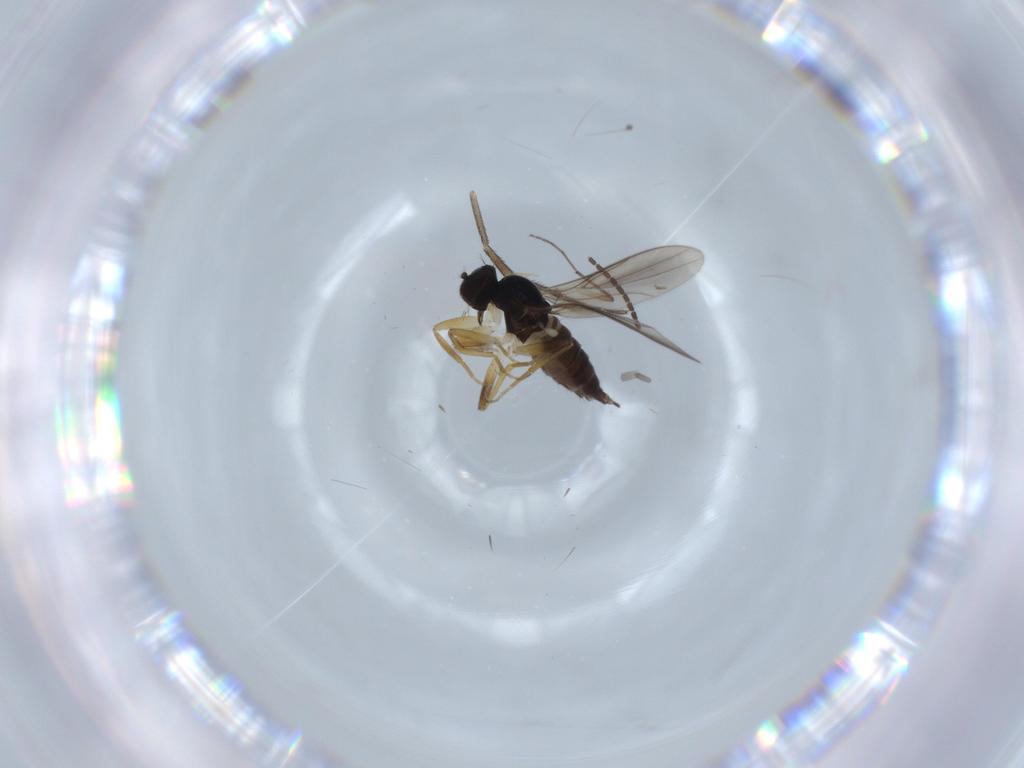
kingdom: Animalia
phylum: Arthropoda
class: Insecta
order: Diptera
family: Hybotidae
